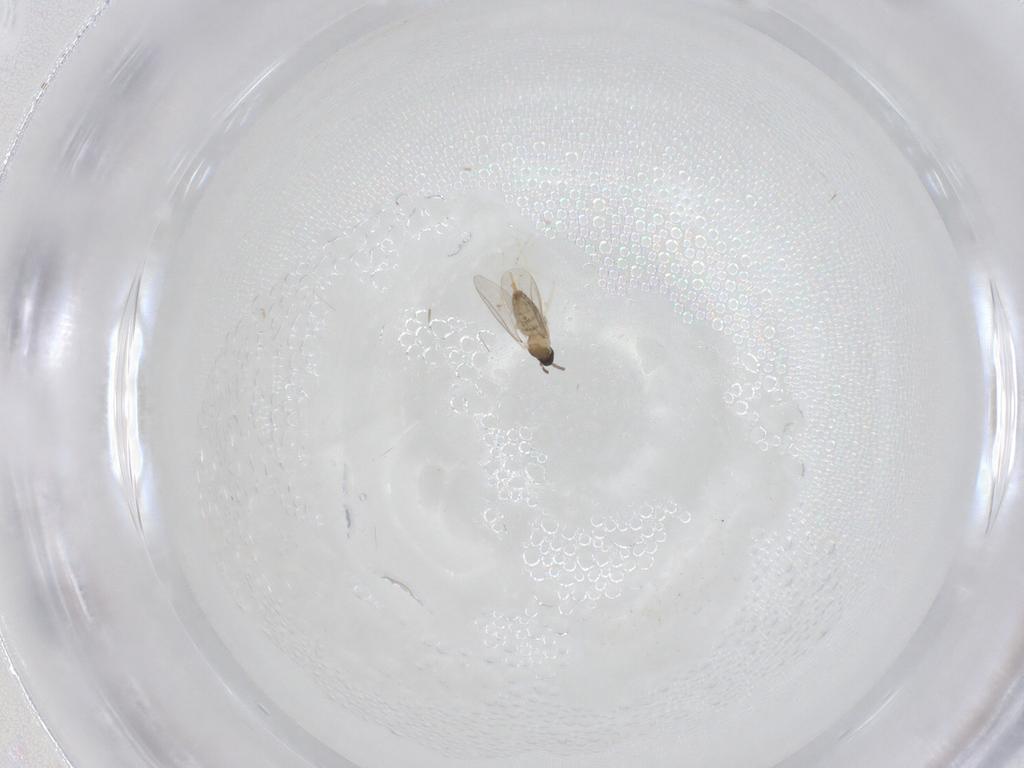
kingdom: Animalia
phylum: Arthropoda
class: Insecta
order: Diptera
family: Cecidomyiidae
